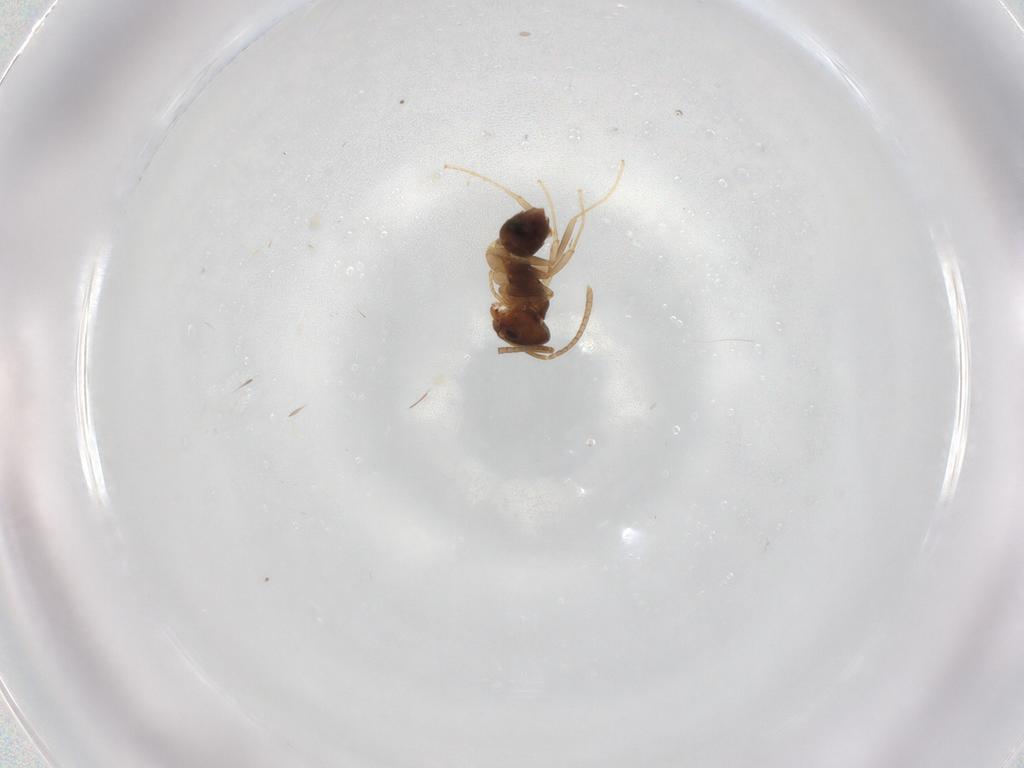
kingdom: Animalia
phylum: Arthropoda
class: Insecta
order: Hymenoptera
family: Formicidae
